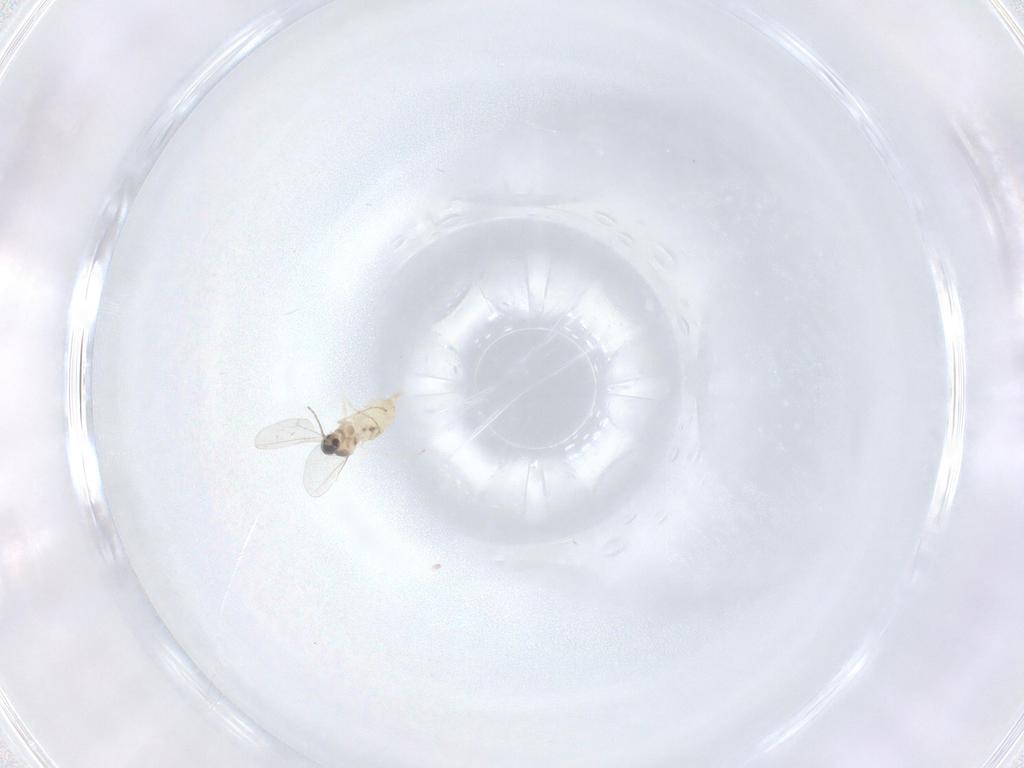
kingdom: Animalia
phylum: Arthropoda
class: Insecta
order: Diptera
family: Cecidomyiidae
